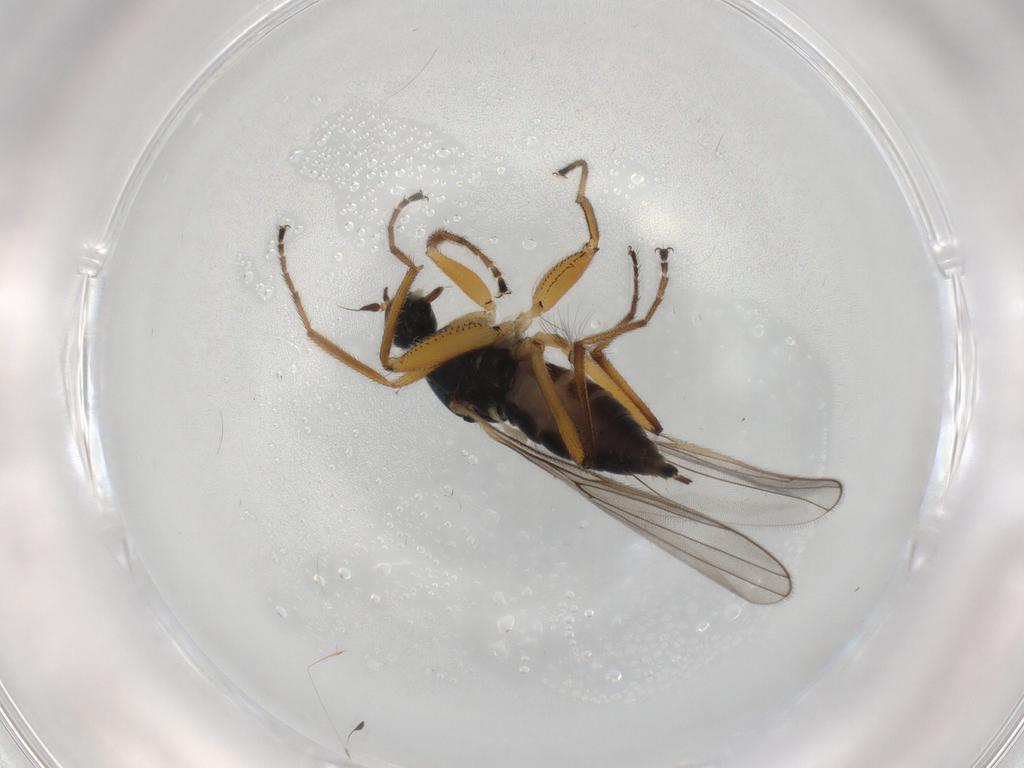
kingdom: Animalia
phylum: Arthropoda
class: Insecta
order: Diptera
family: Hybotidae
